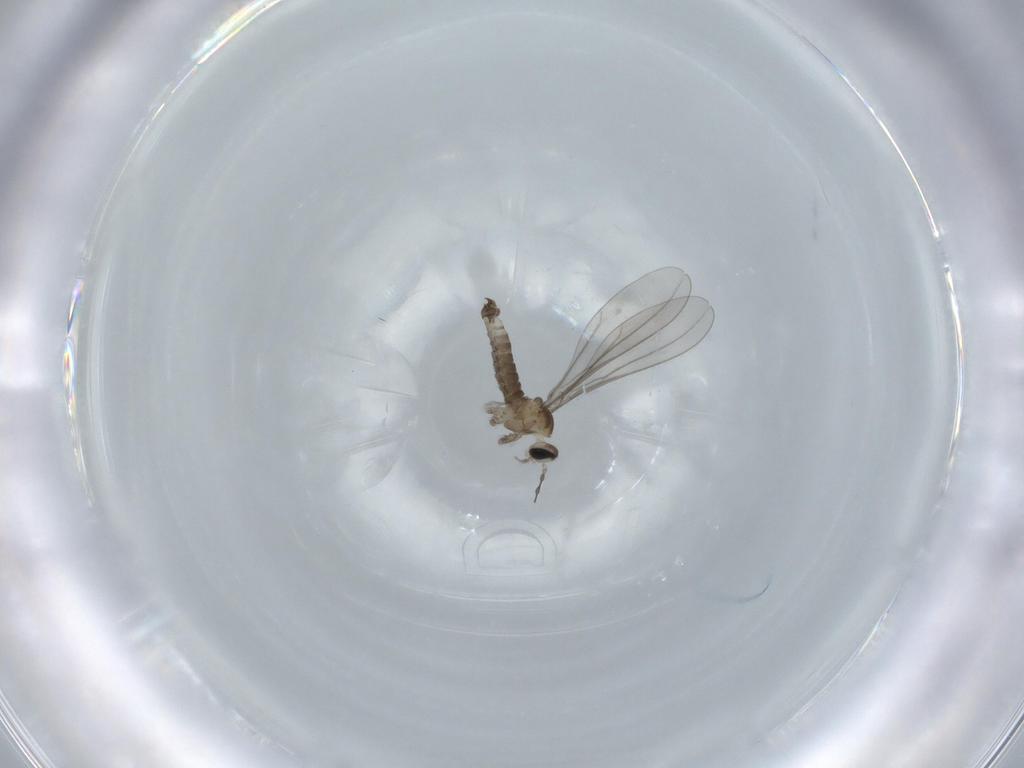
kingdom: Animalia
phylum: Arthropoda
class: Insecta
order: Diptera
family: Cecidomyiidae
